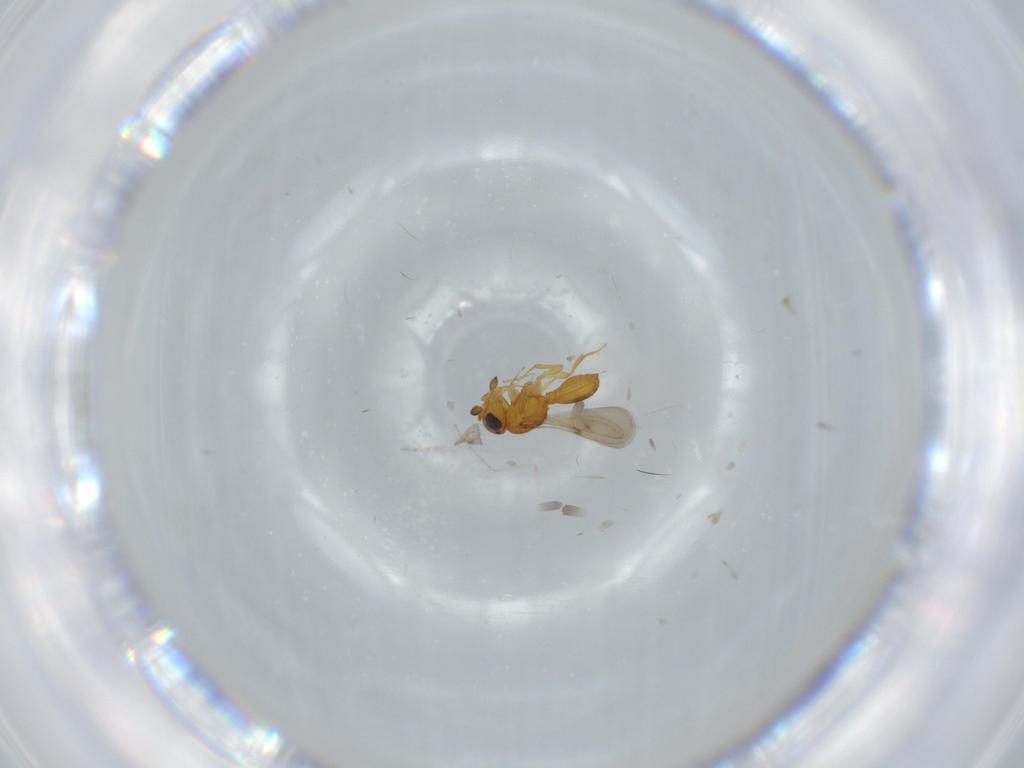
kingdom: Animalia
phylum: Arthropoda
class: Insecta
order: Hymenoptera
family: Scelionidae
